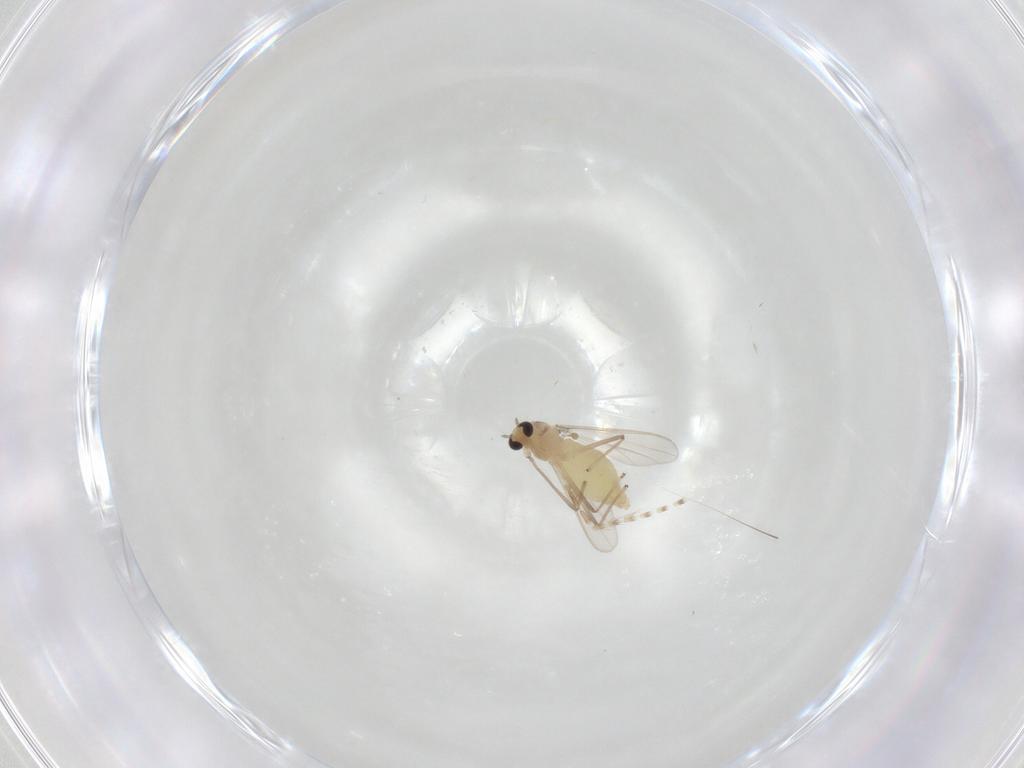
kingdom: Animalia
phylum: Arthropoda
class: Insecta
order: Diptera
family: Chironomidae
